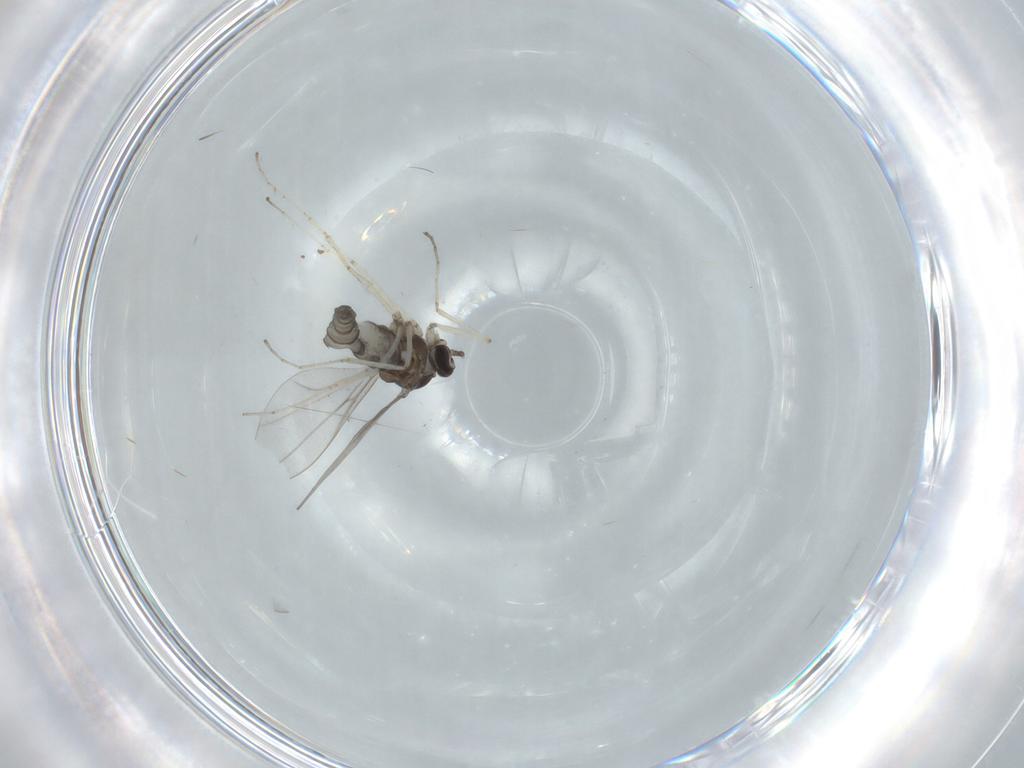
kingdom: Animalia
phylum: Arthropoda
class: Insecta
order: Diptera
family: Cecidomyiidae
